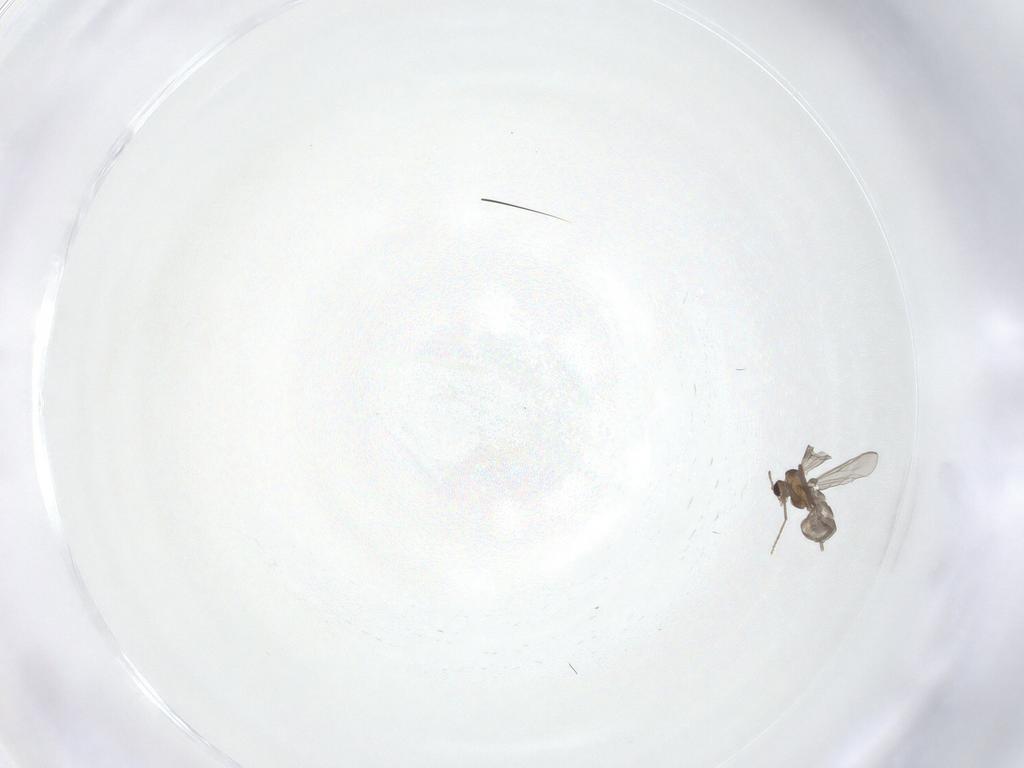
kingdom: Animalia
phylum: Arthropoda
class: Insecta
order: Diptera
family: Chironomidae
